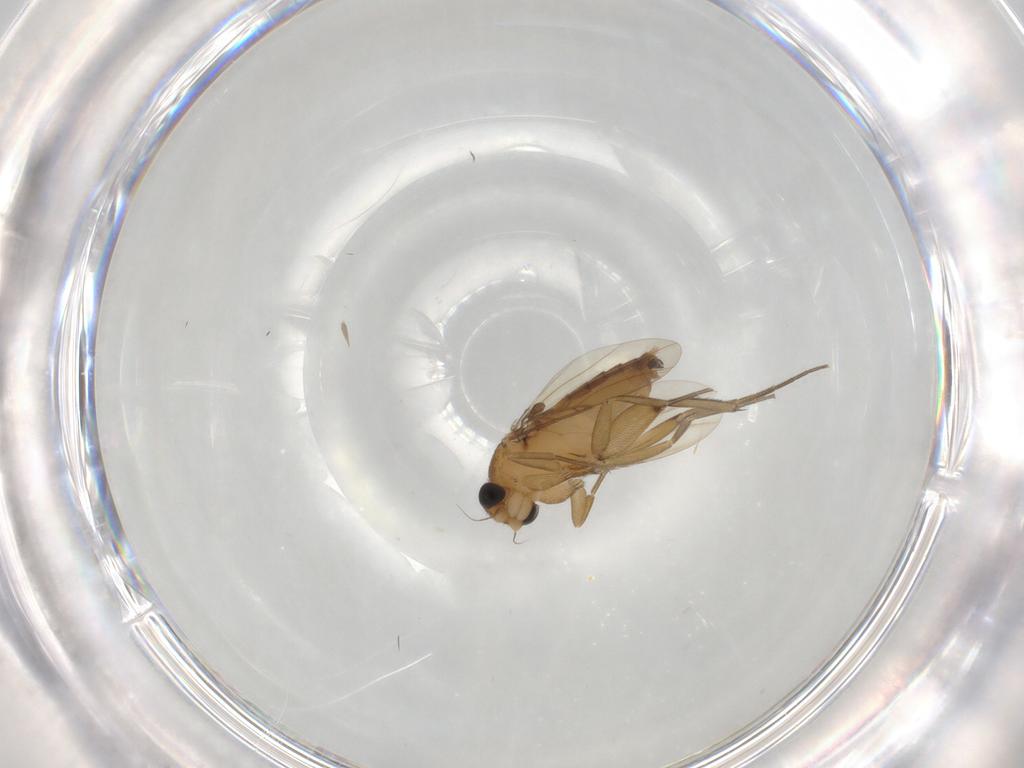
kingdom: Animalia
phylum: Arthropoda
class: Insecta
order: Diptera
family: Phoridae
